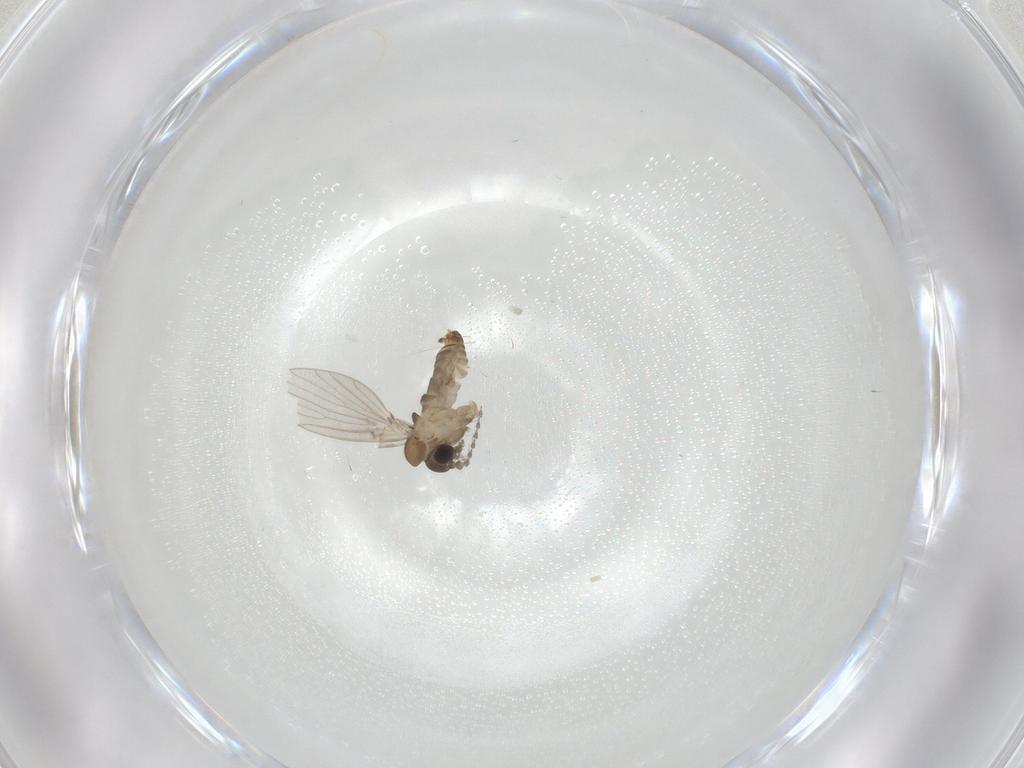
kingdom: Animalia
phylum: Arthropoda
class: Insecta
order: Diptera
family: Psychodidae
